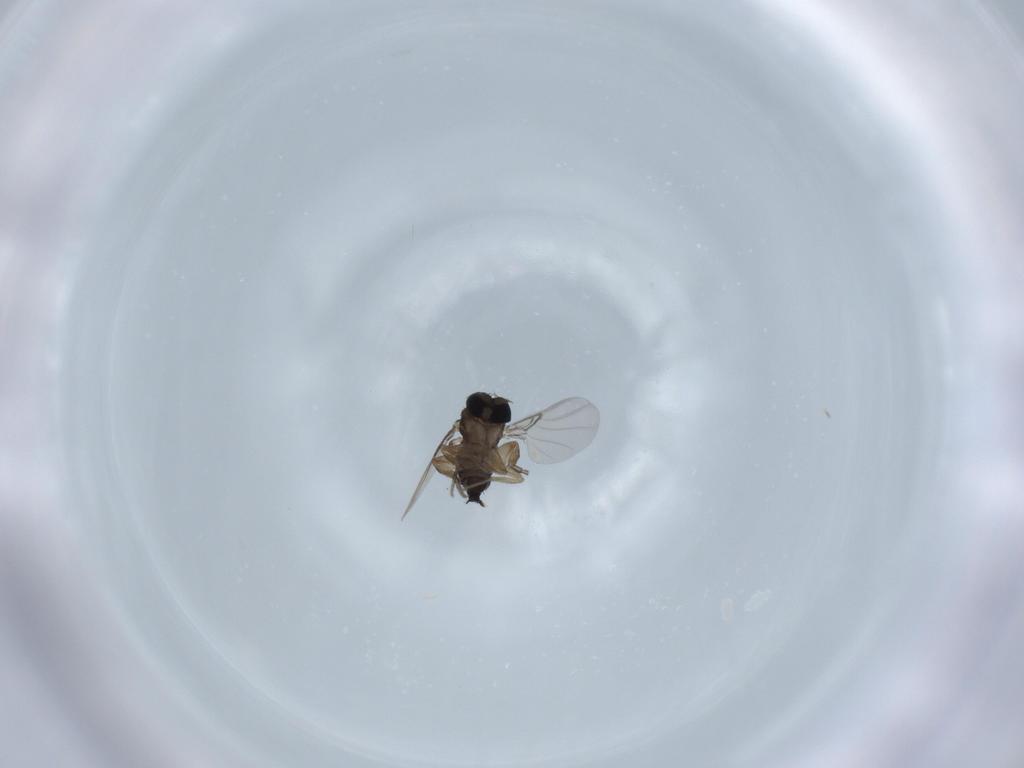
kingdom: Animalia
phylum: Arthropoda
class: Insecta
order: Diptera
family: Phoridae
